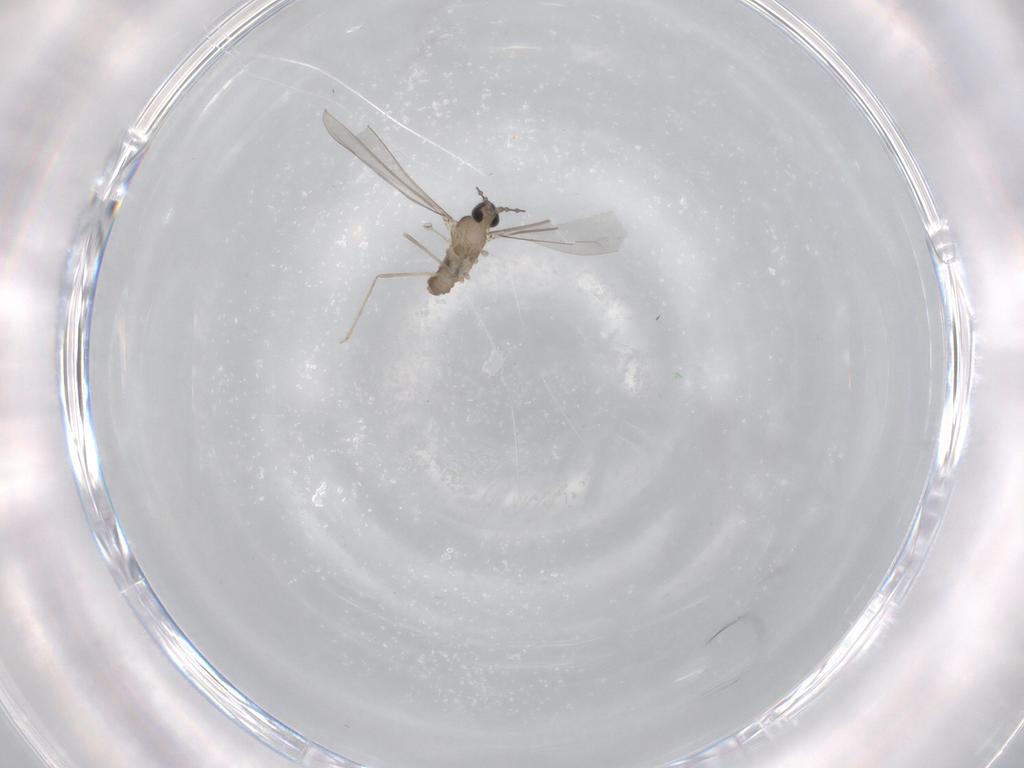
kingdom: Animalia
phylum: Arthropoda
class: Insecta
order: Diptera
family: Cecidomyiidae
